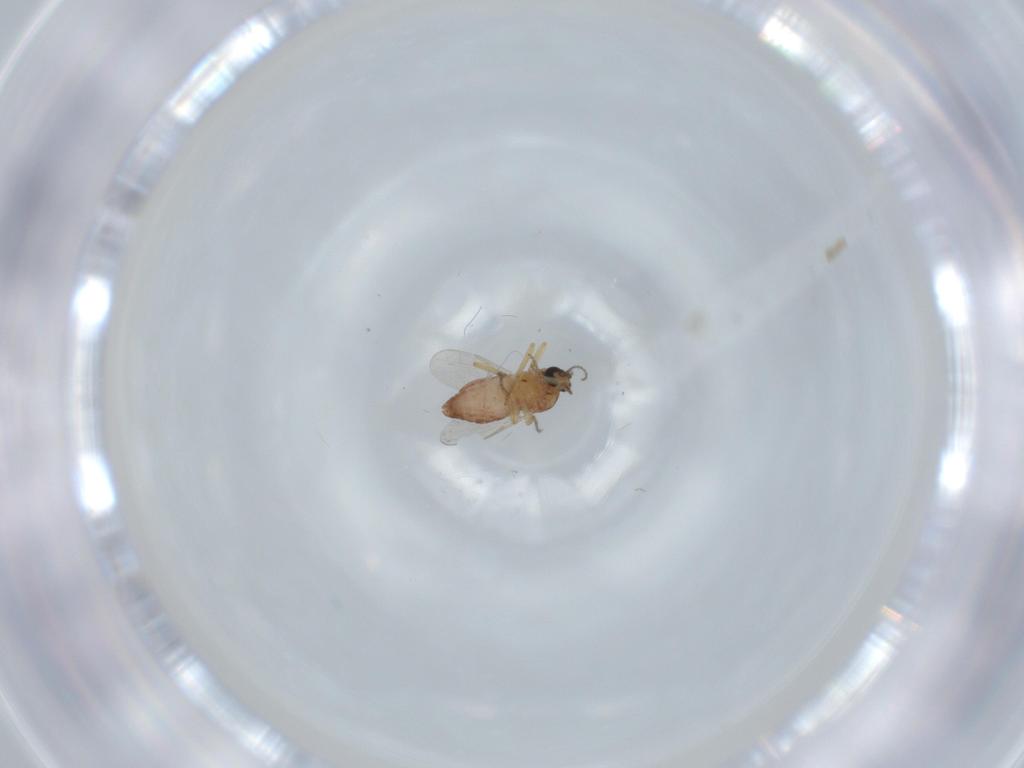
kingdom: Animalia
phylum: Arthropoda
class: Insecta
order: Diptera
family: Ceratopogonidae
